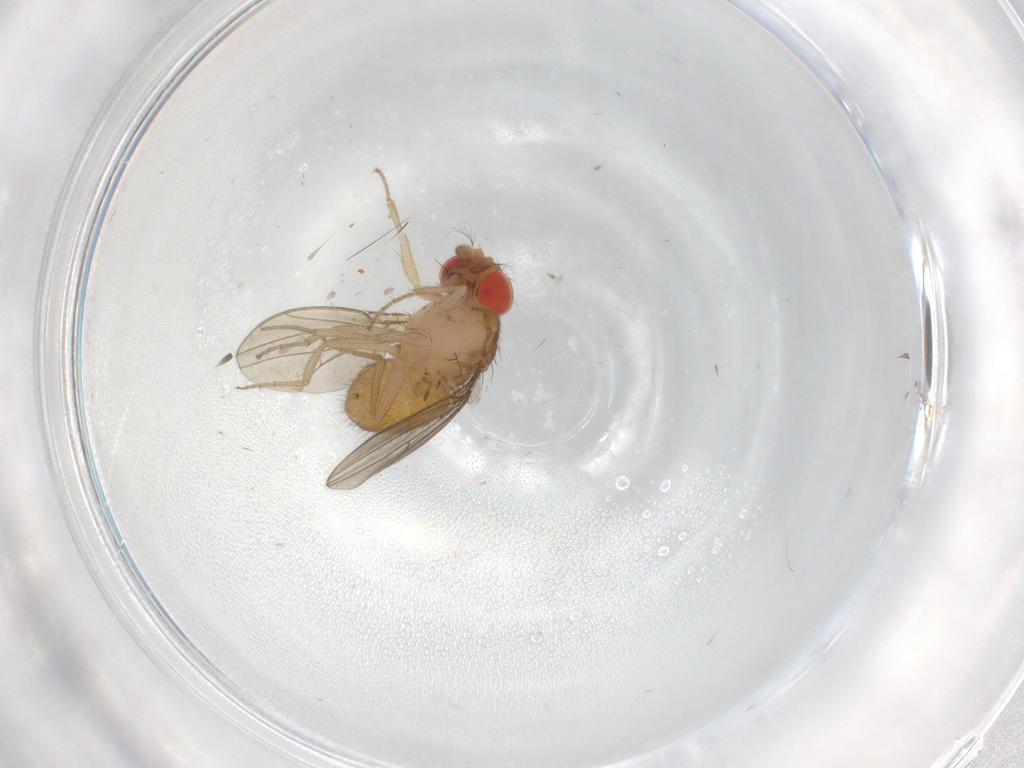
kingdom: Animalia
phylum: Arthropoda
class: Insecta
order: Diptera
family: Drosophilidae
